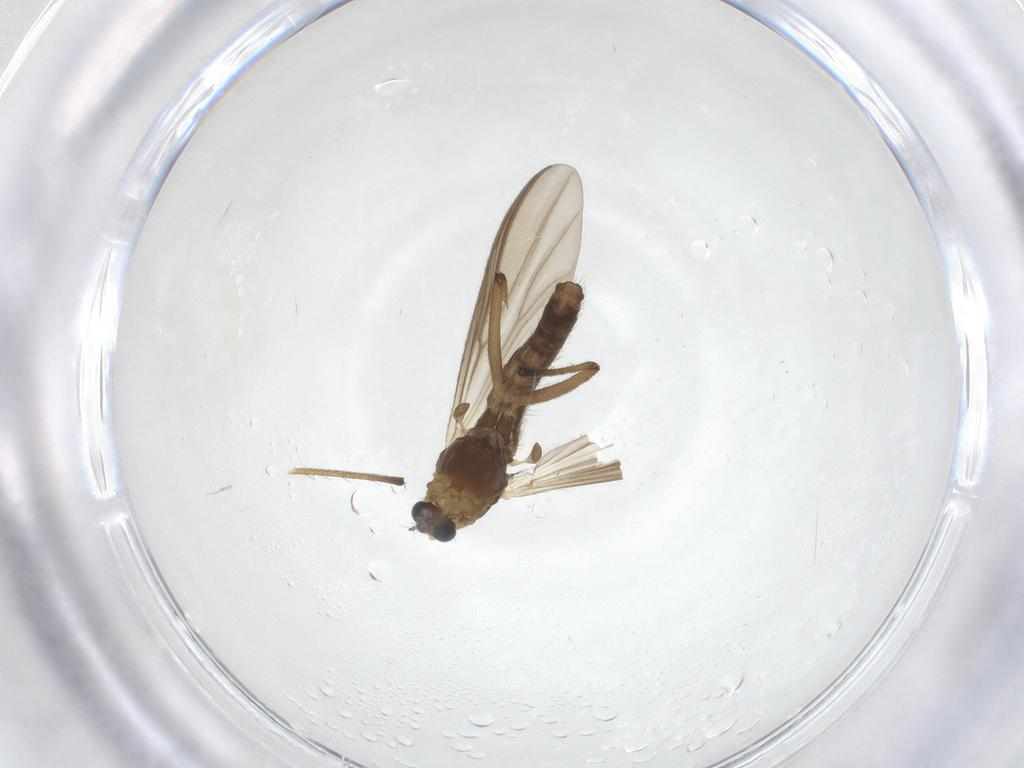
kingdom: Animalia
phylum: Arthropoda
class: Insecta
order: Diptera
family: Chironomidae
